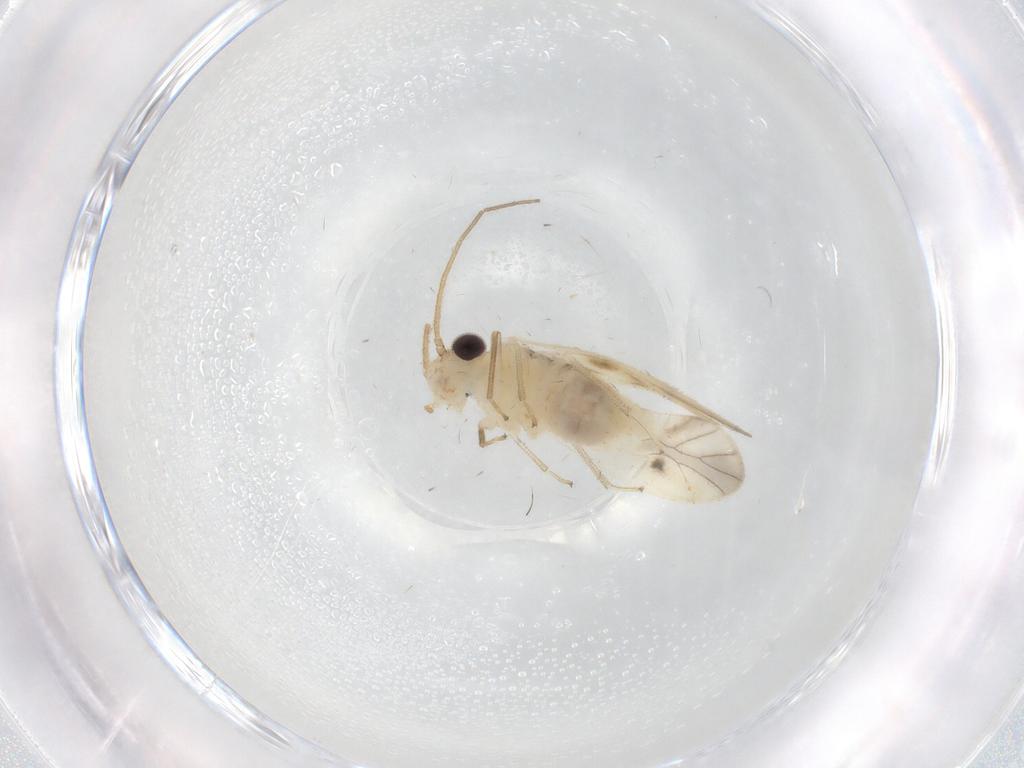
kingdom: Animalia
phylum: Arthropoda
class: Insecta
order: Psocodea
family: Caeciliusidae
